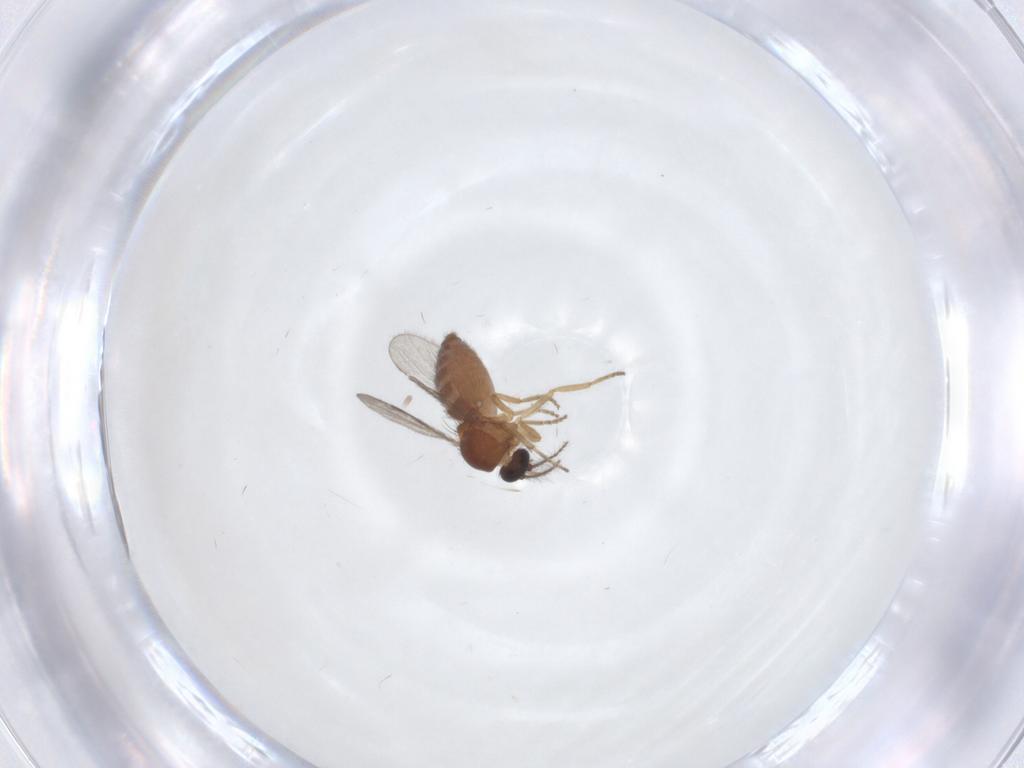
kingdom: Animalia
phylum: Arthropoda
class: Insecta
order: Diptera
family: Ceratopogonidae
